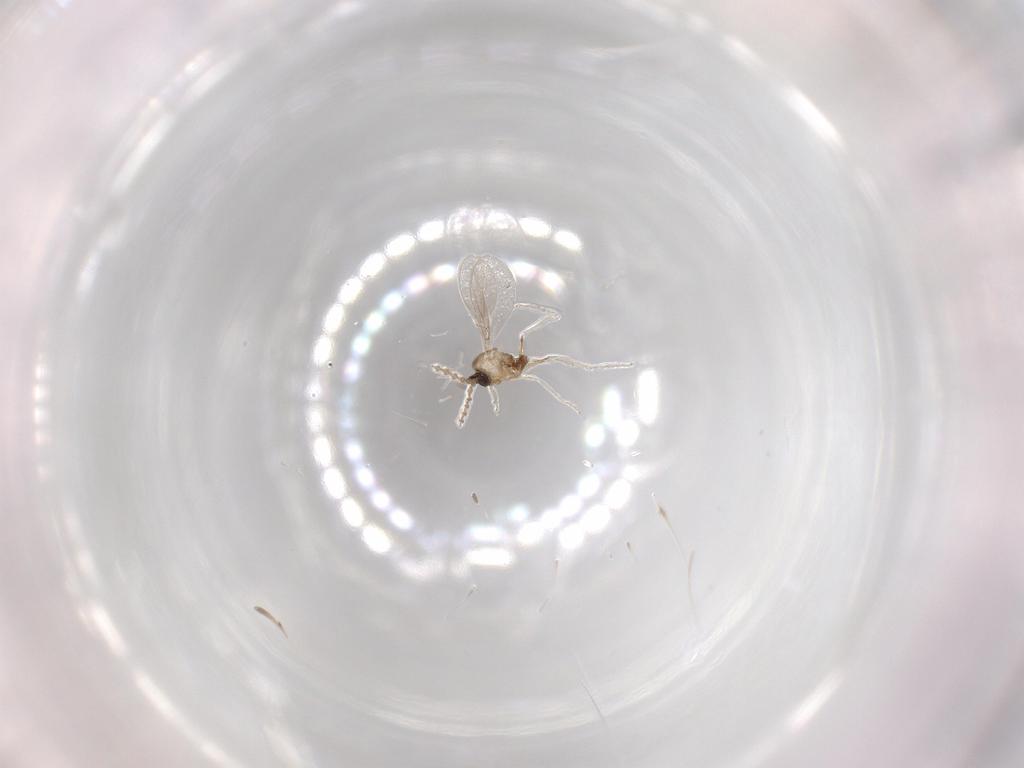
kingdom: Animalia
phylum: Arthropoda
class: Insecta
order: Diptera
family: Cecidomyiidae
